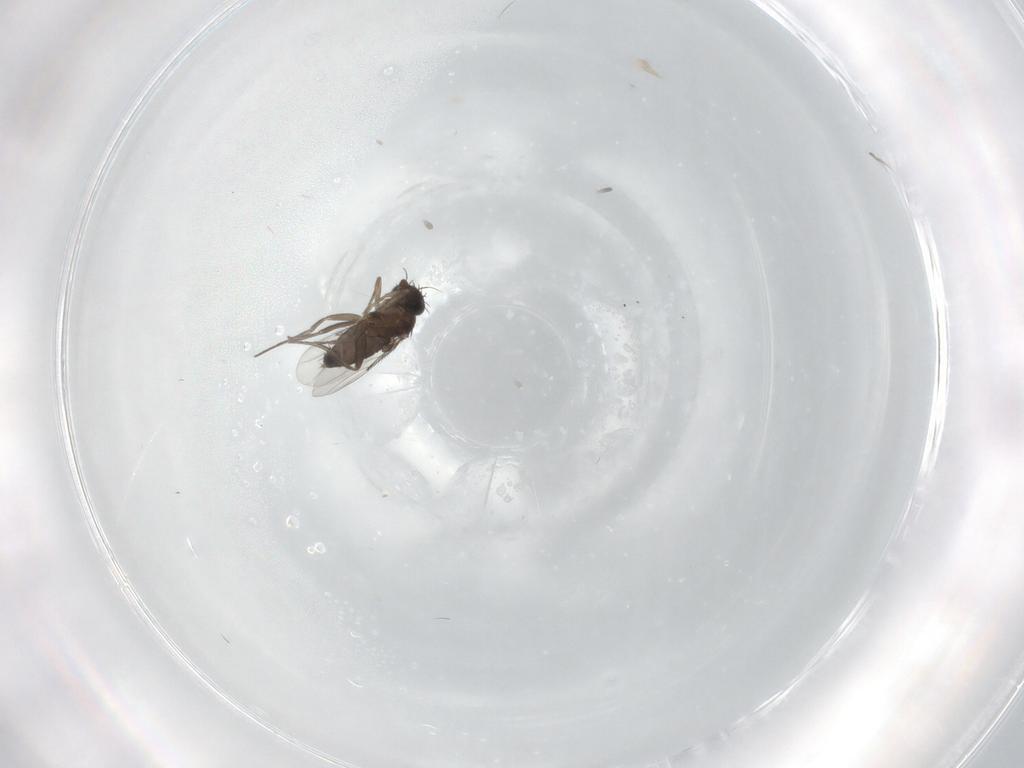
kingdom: Animalia
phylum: Arthropoda
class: Insecta
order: Diptera
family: Phoridae
